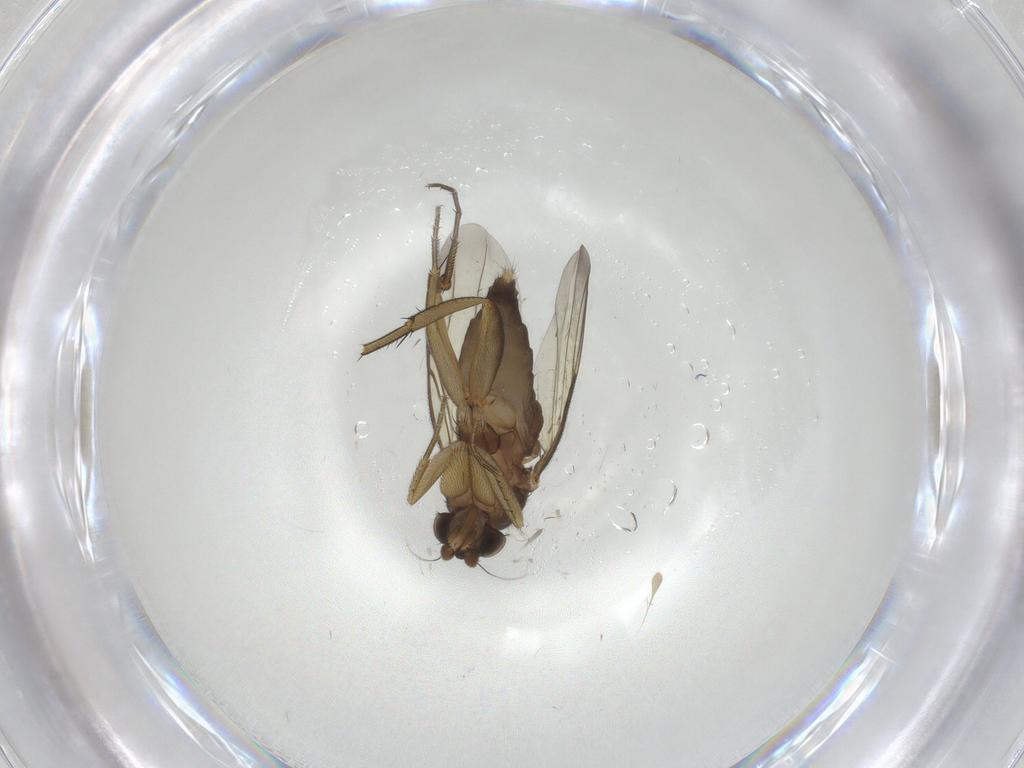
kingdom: Animalia
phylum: Arthropoda
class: Insecta
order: Diptera
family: Phoridae
